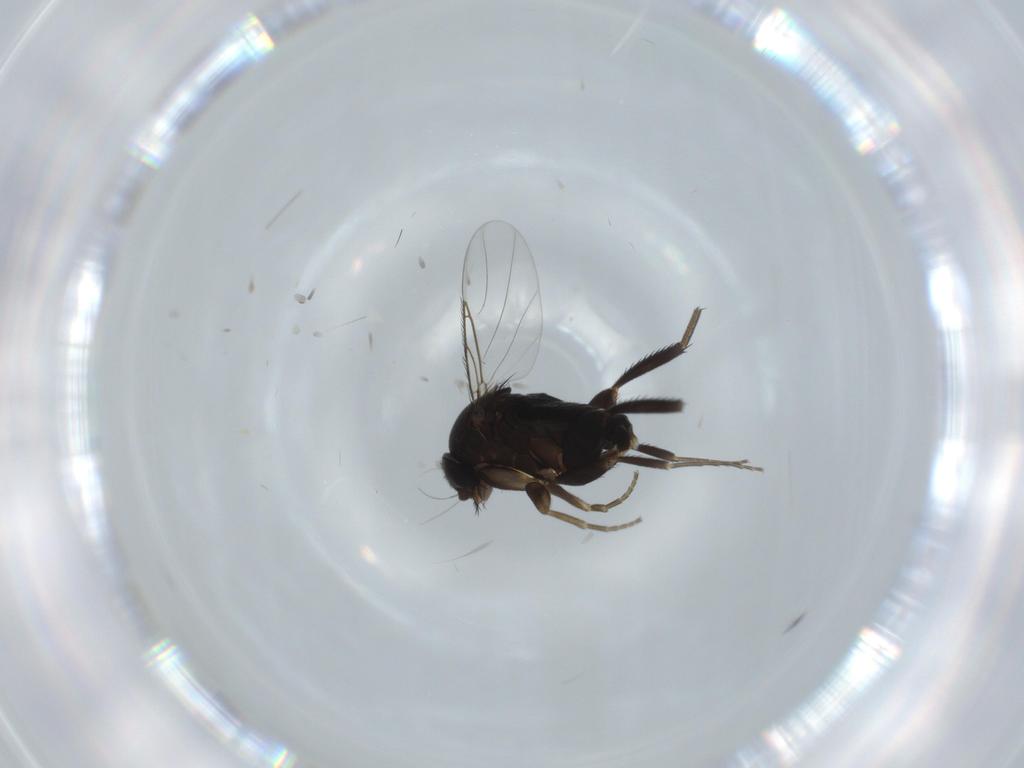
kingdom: Animalia
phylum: Arthropoda
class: Insecta
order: Diptera
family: Phoridae
